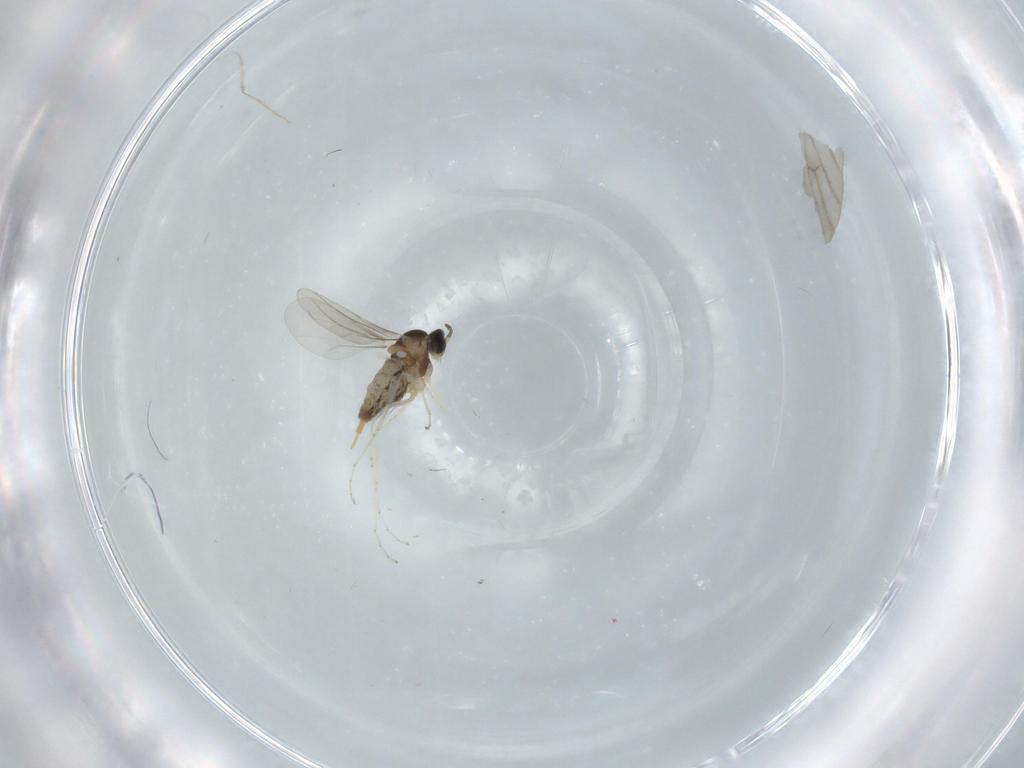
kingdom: Animalia
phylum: Arthropoda
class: Insecta
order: Diptera
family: Cecidomyiidae
